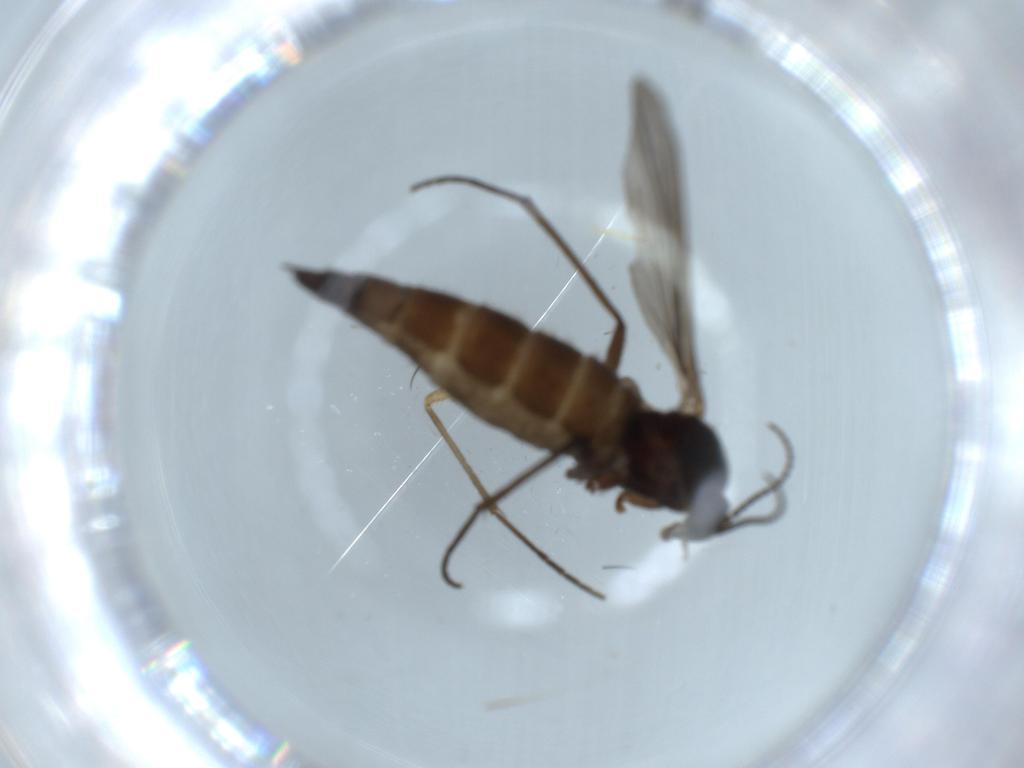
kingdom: Animalia
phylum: Arthropoda
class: Insecta
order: Diptera
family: Sciaridae
